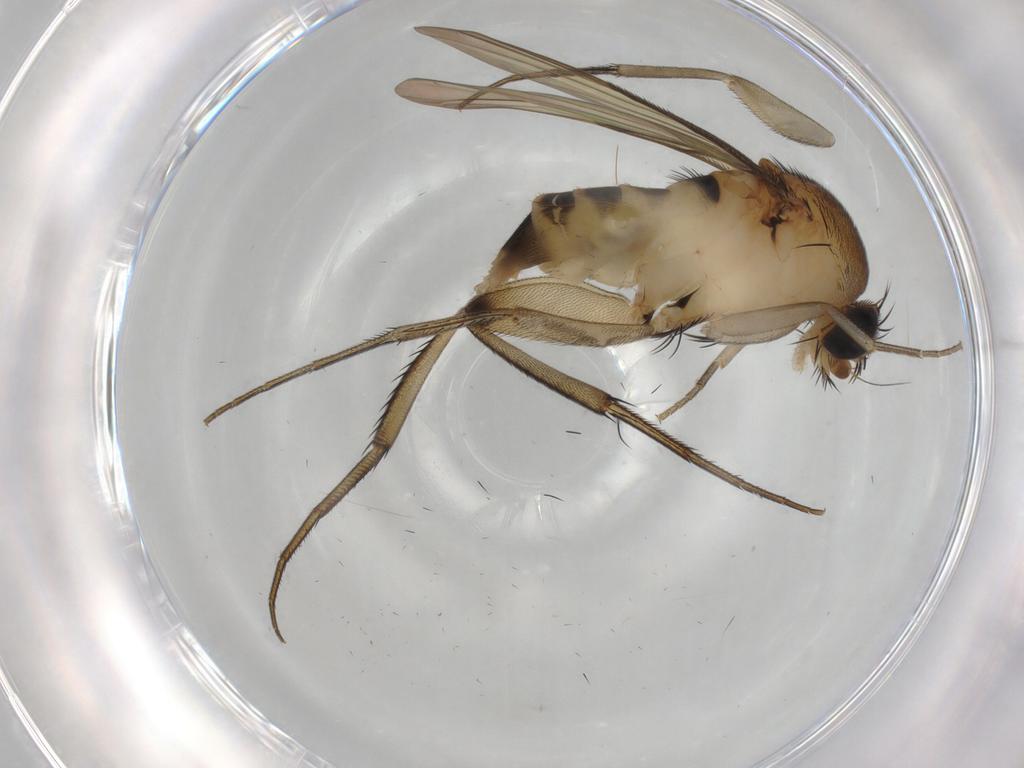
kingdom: Animalia
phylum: Arthropoda
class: Insecta
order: Diptera
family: Phoridae
